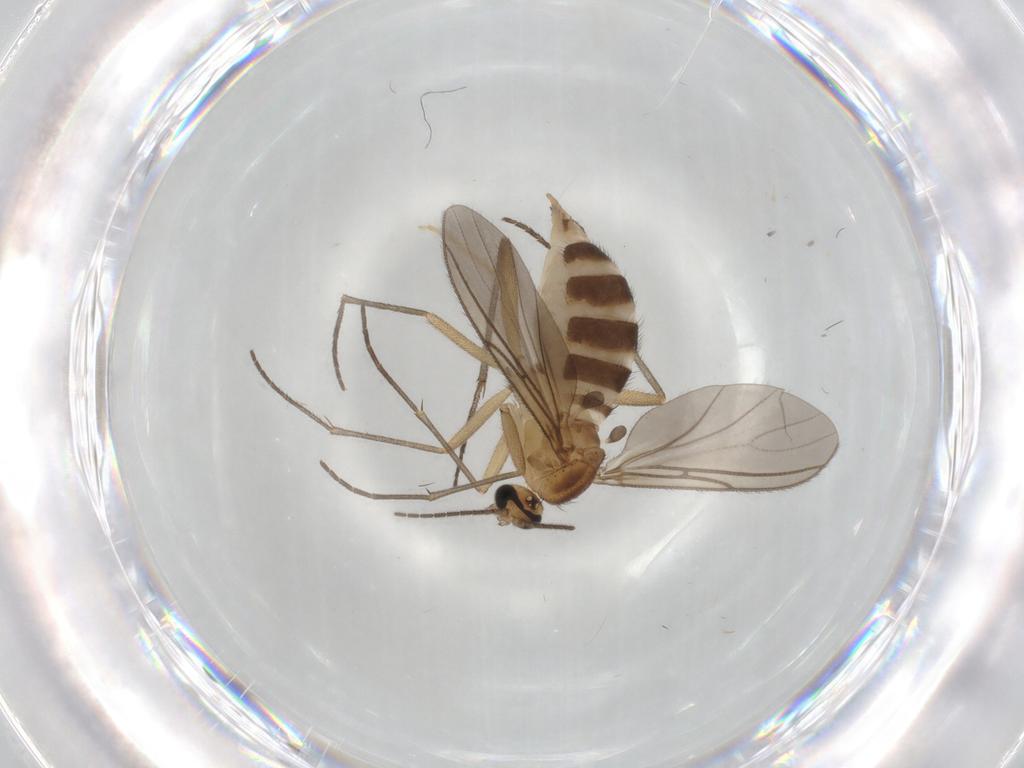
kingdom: Animalia
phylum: Arthropoda
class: Insecta
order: Diptera
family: Sciaridae
